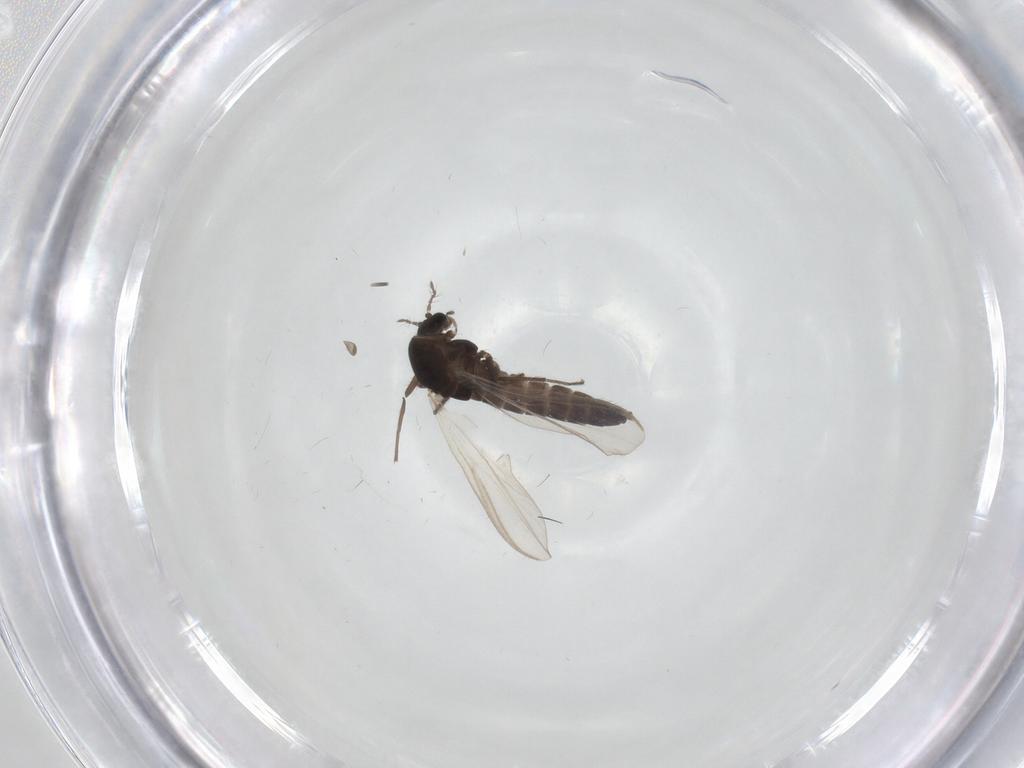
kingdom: Animalia
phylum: Arthropoda
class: Insecta
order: Diptera
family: Chironomidae
